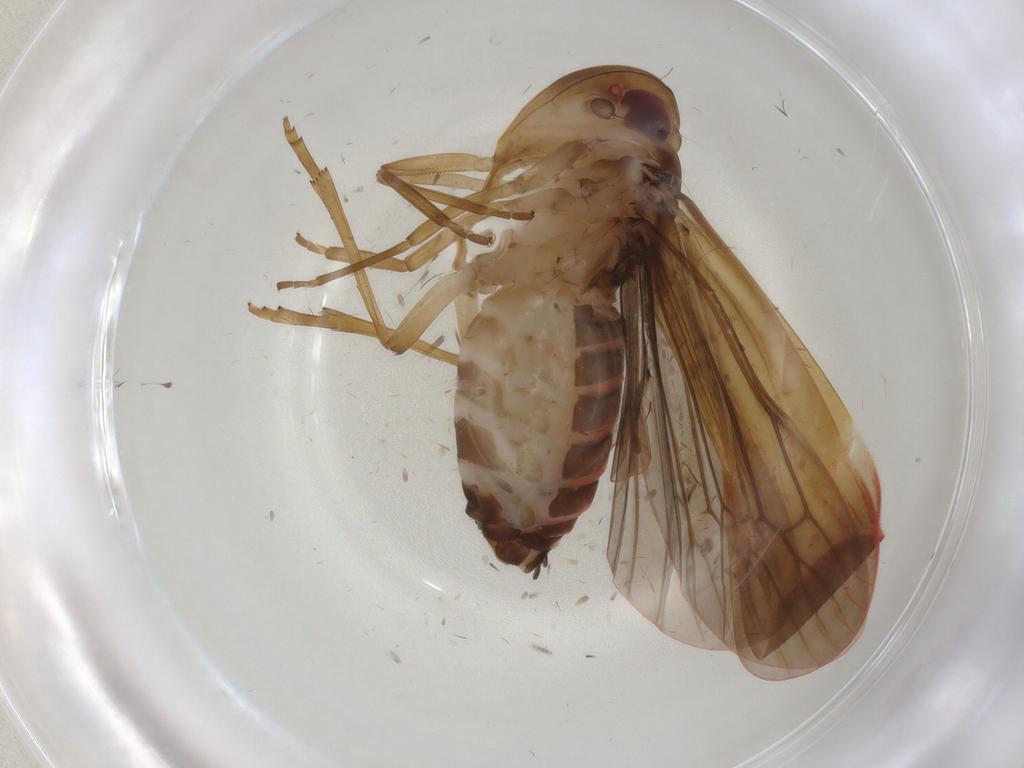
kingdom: Animalia
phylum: Arthropoda
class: Insecta
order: Hemiptera
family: Achilidae
